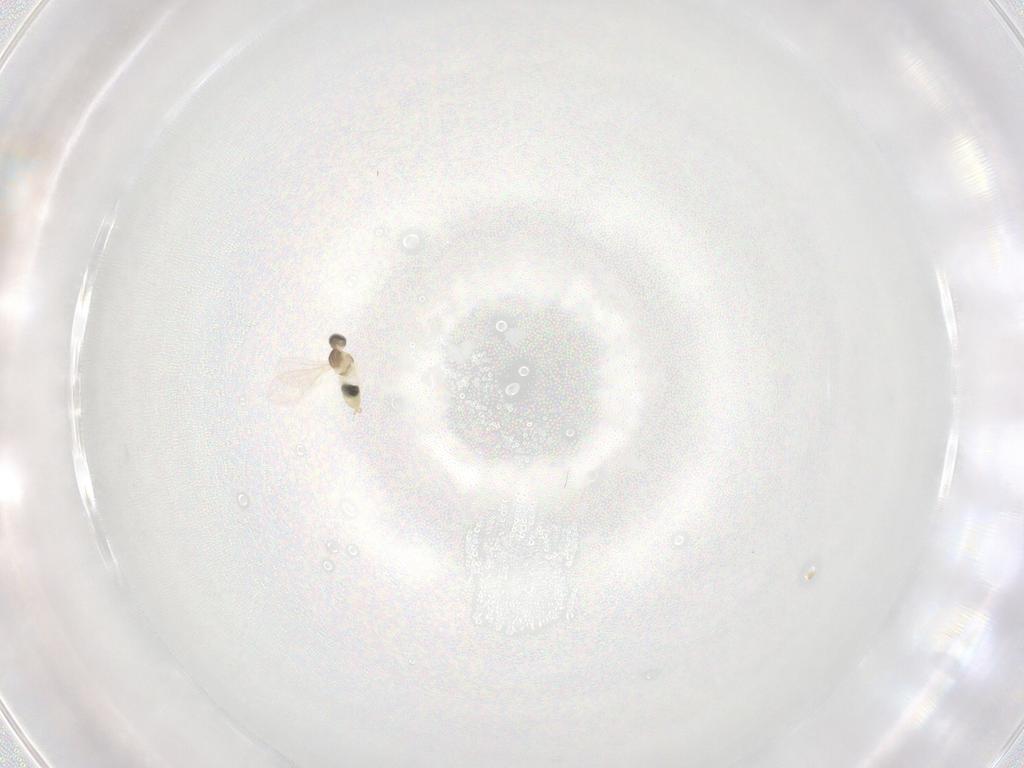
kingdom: Animalia
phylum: Arthropoda
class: Insecta
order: Diptera
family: Cecidomyiidae
